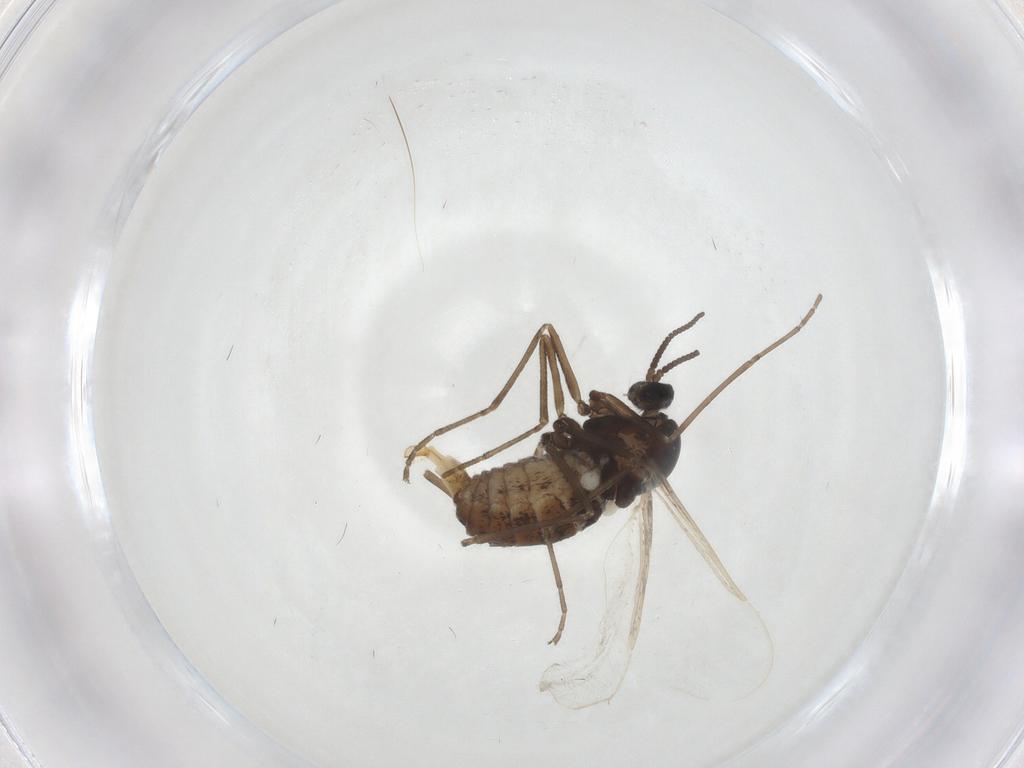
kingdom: Animalia
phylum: Arthropoda
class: Insecta
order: Diptera
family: Cecidomyiidae
